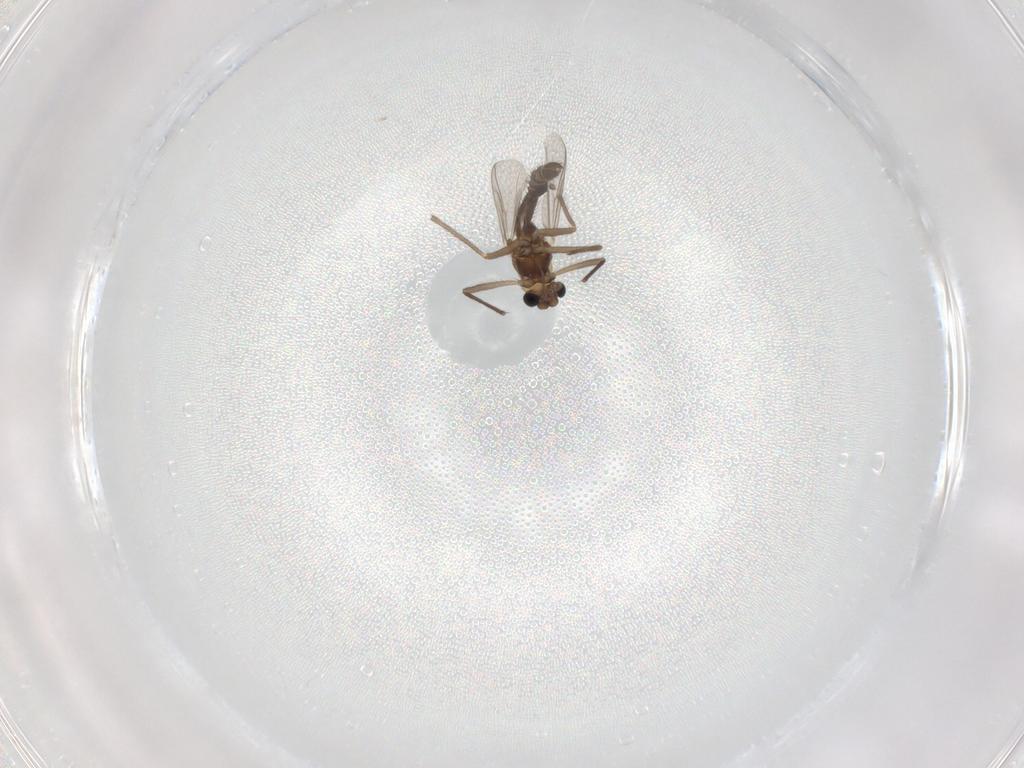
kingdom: Animalia
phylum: Arthropoda
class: Insecta
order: Diptera
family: Chironomidae
